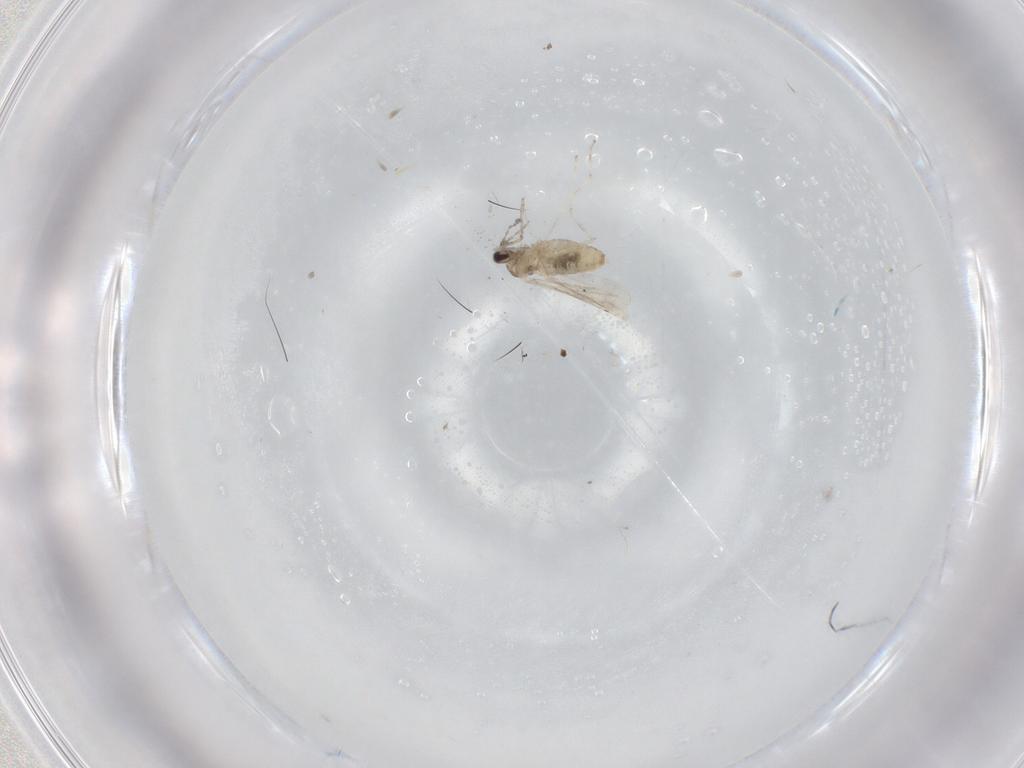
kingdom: Animalia
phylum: Arthropoda
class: Insecta
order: Diptera
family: Cecidomyiidae
